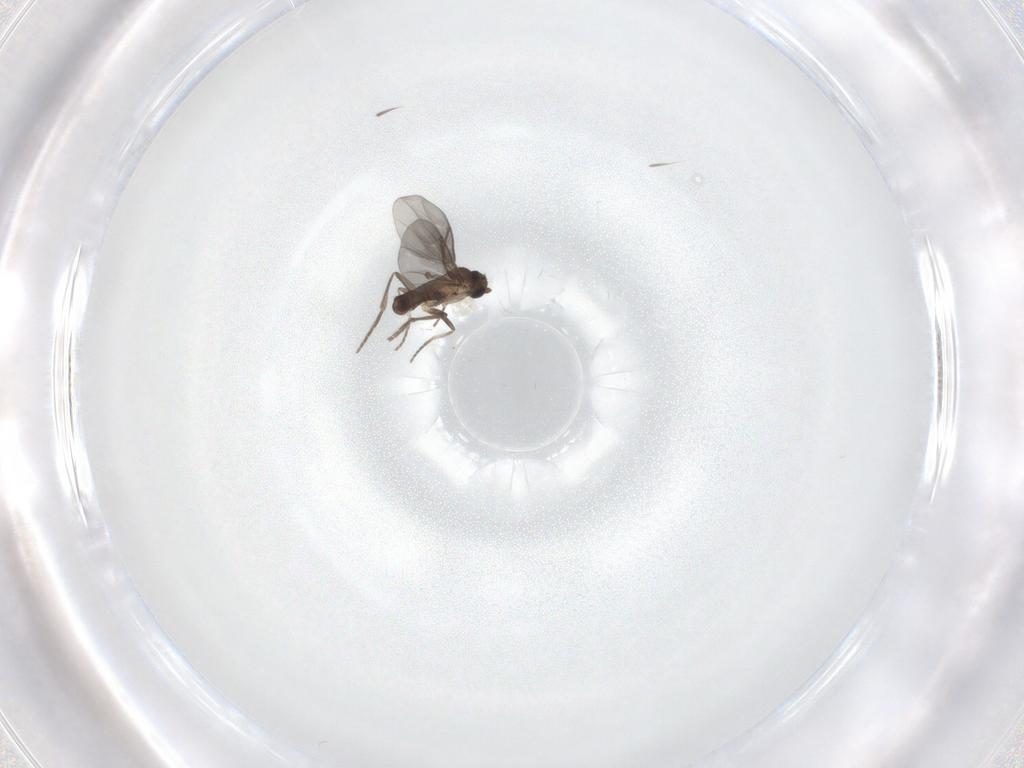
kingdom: Animalia
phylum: Arthropoda
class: Insecta
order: Diptera
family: Phoridae
